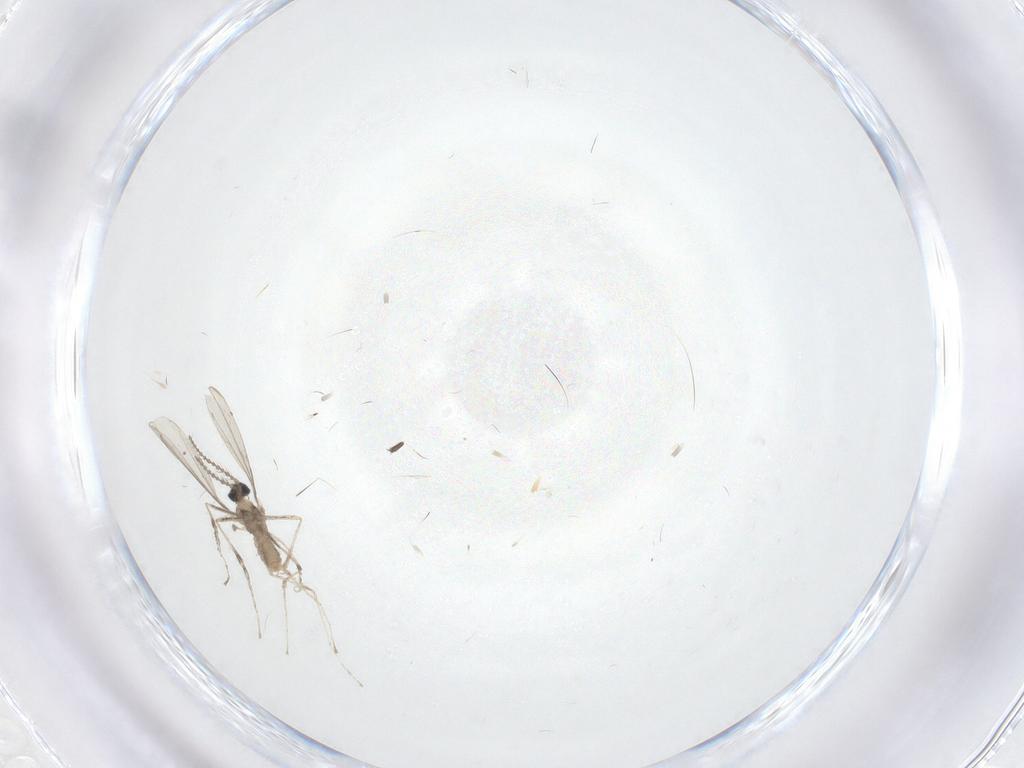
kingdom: Animalia
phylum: Arthropoda
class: Insecta
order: Diptera
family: Cecidomyiidae
